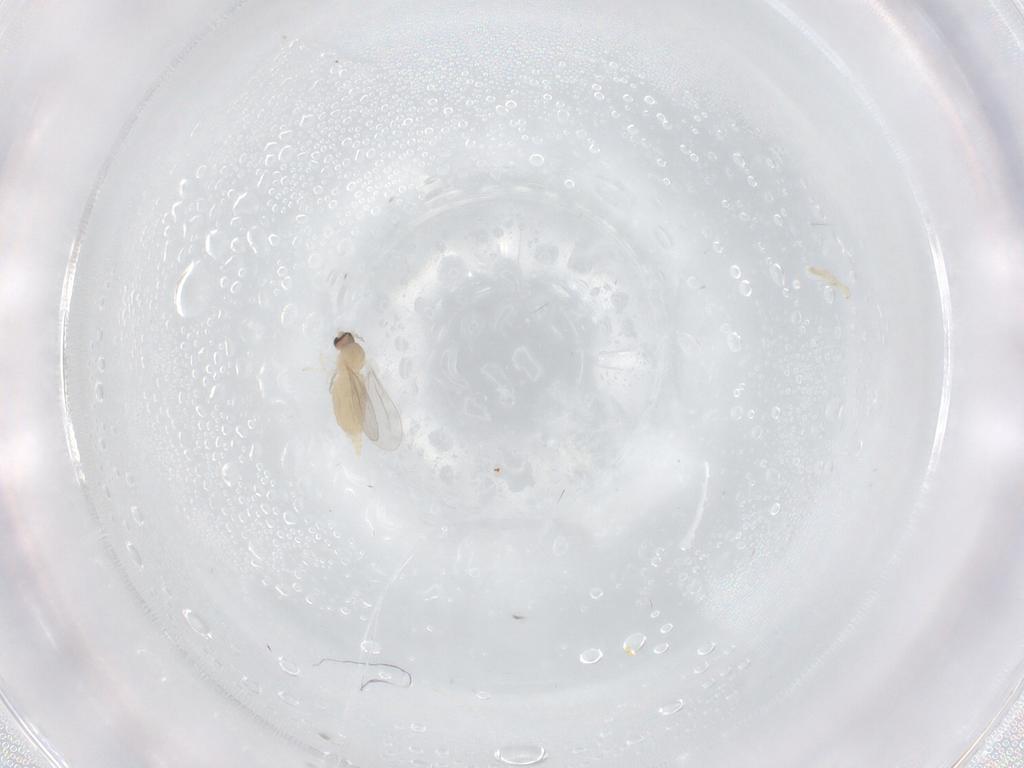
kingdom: Animalia
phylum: Arthropoda
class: Insecta
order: Diptera
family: Cecidomyiidae
